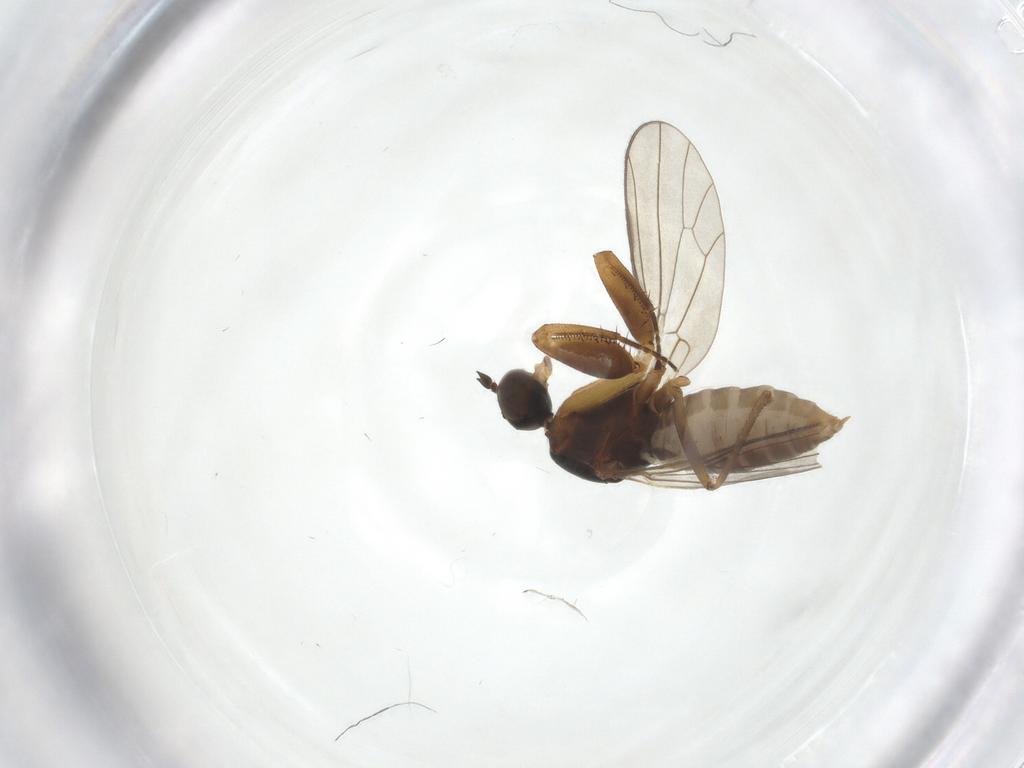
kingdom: Animalia
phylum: Arthropoda
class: Insecta
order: Diptera
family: Empididae
